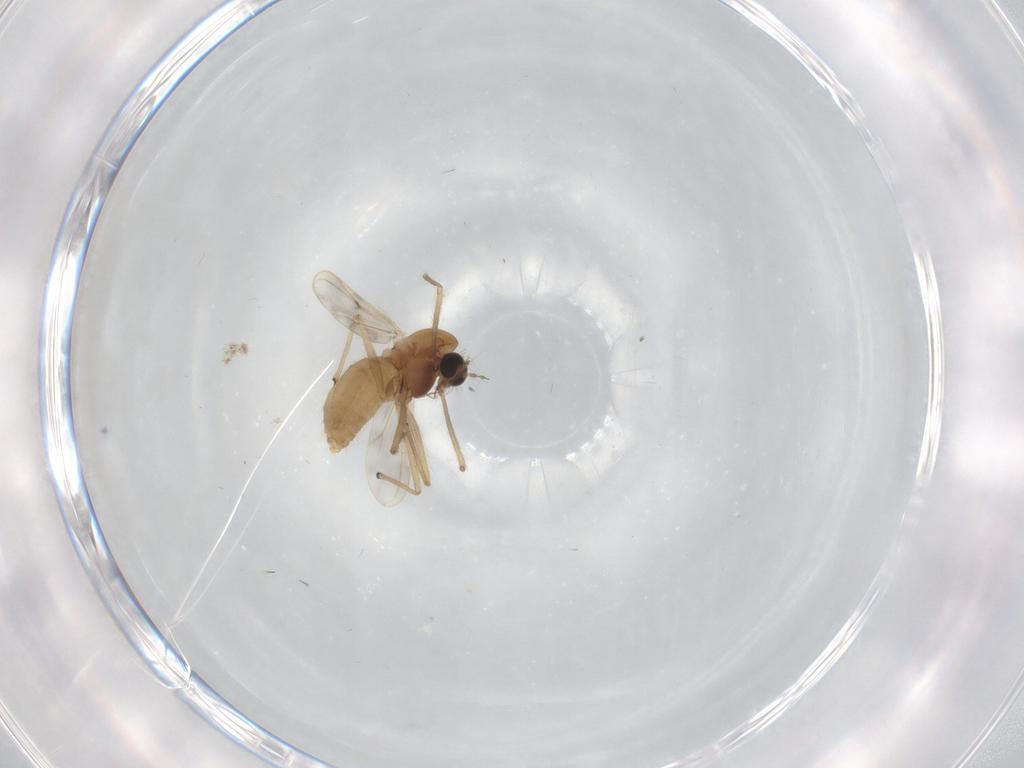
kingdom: Animalia
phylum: Arthropoda
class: Insecta
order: Diptera
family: Chironomidae
